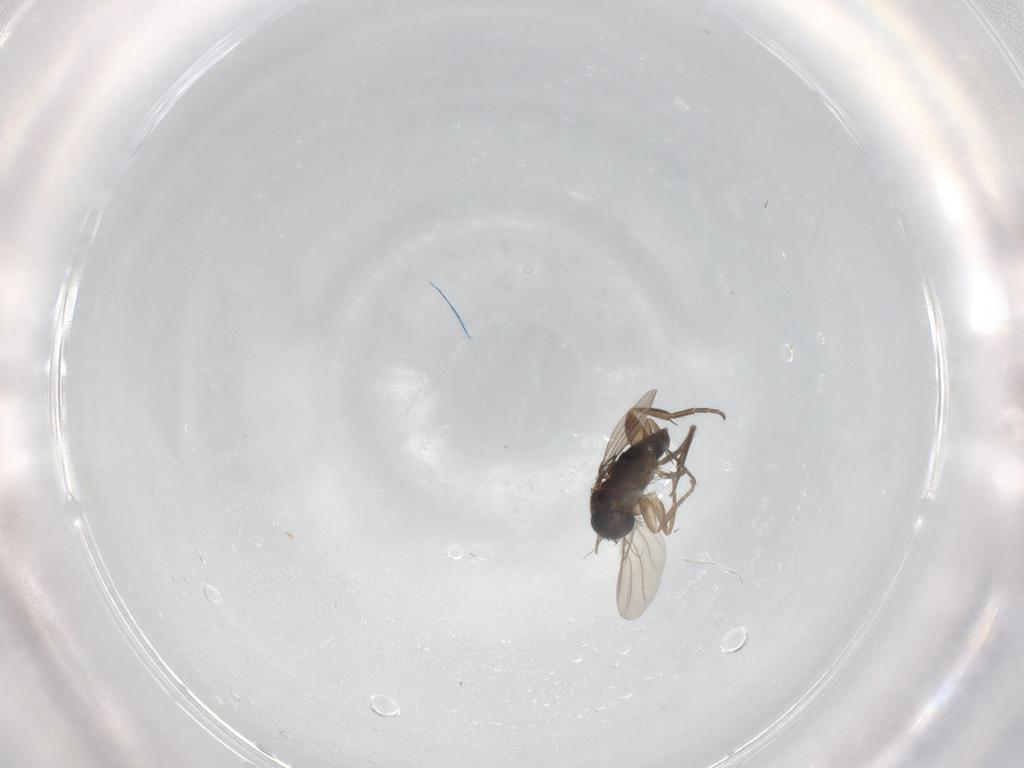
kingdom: Animalia
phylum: Arthropoda
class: Insecta
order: Diptera
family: Phoridae
